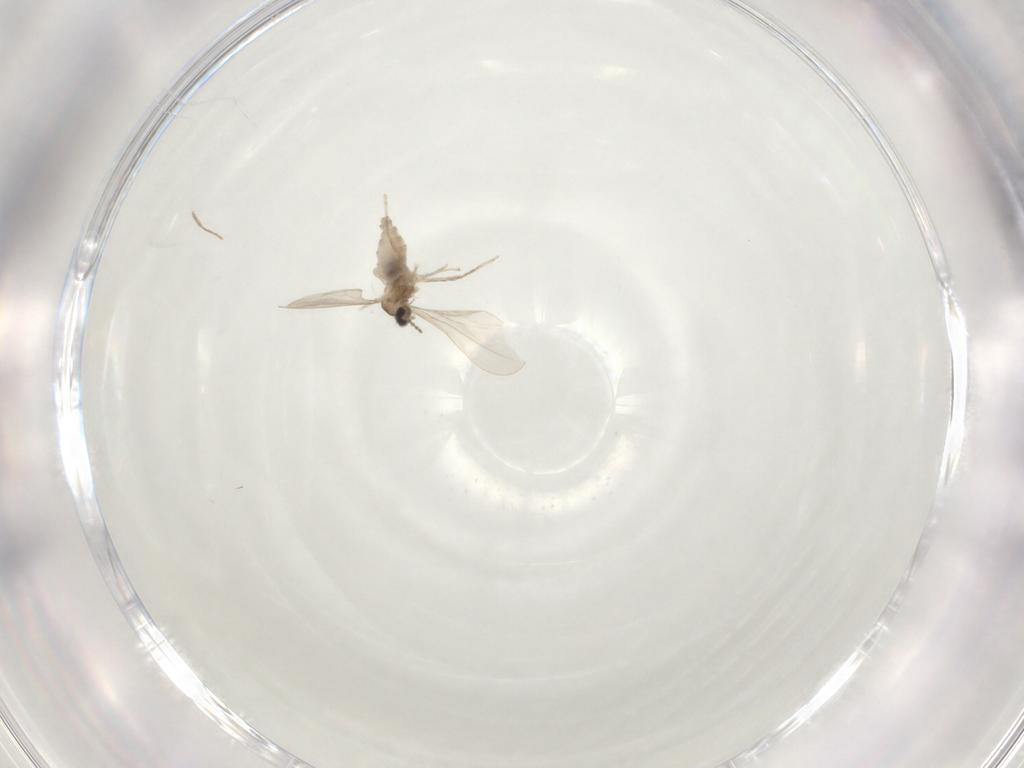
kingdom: Animalia
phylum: Arthropoda
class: Insecta
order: Diptera
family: Cecidomyiidae
